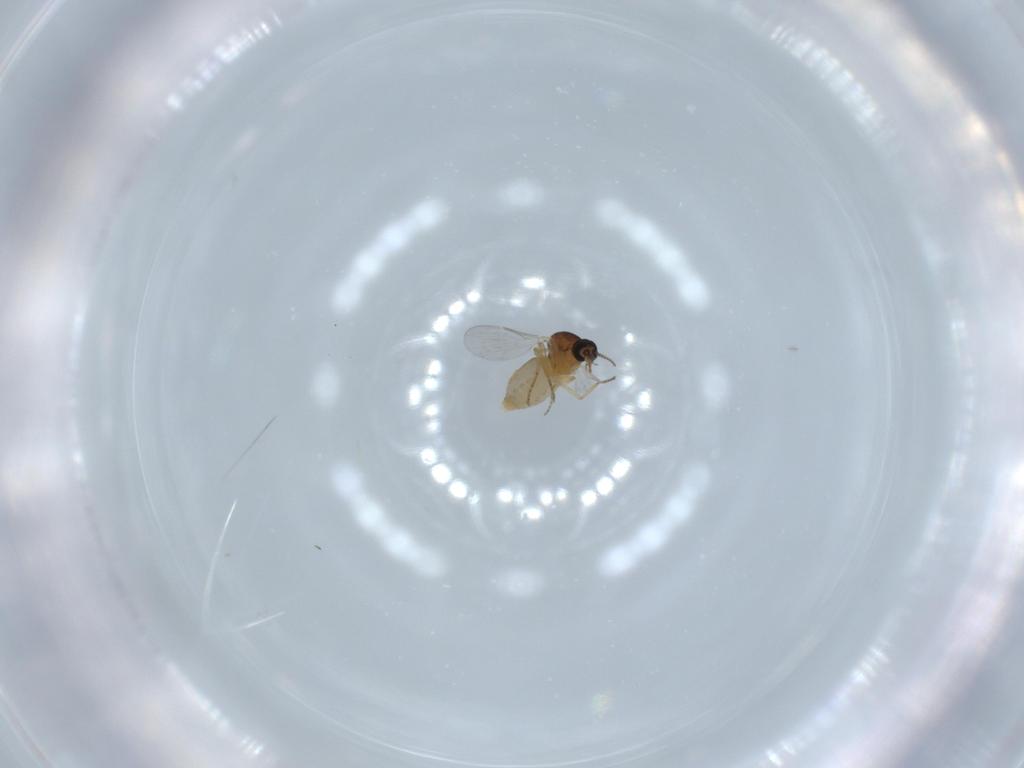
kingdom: Animalia
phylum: Arthropoda
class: Insecta
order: Diptera
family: Ceratopogonidae
